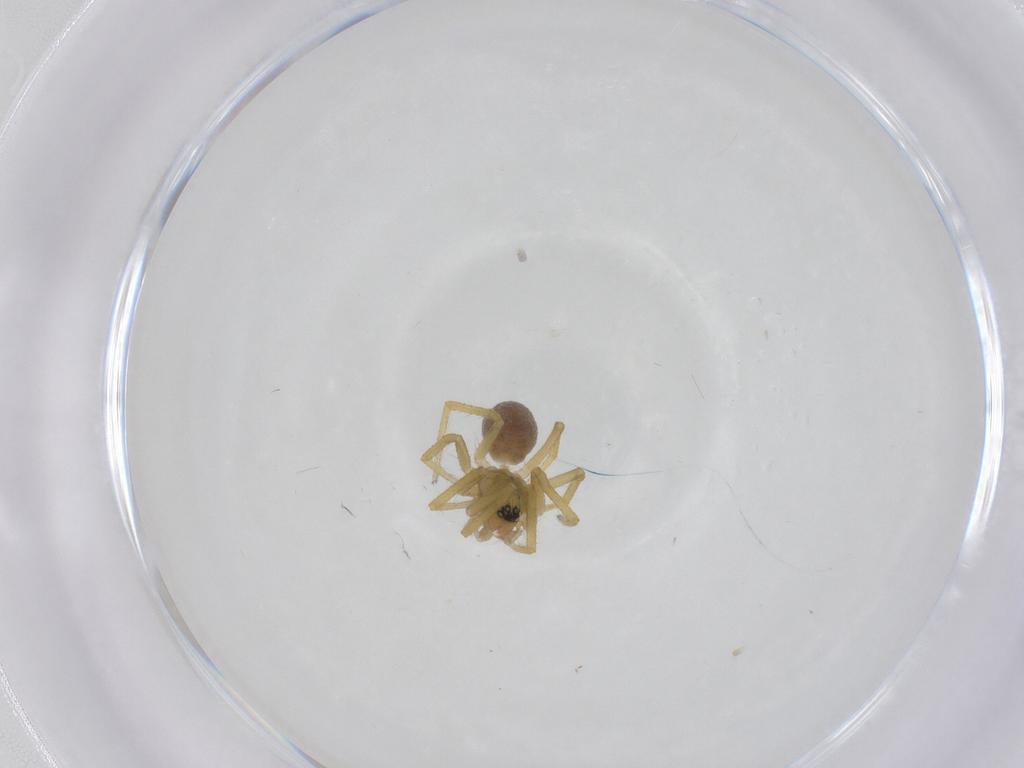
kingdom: Animalia
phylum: Arthropoda
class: Arachnida
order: Araneae
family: Linyphiidae
